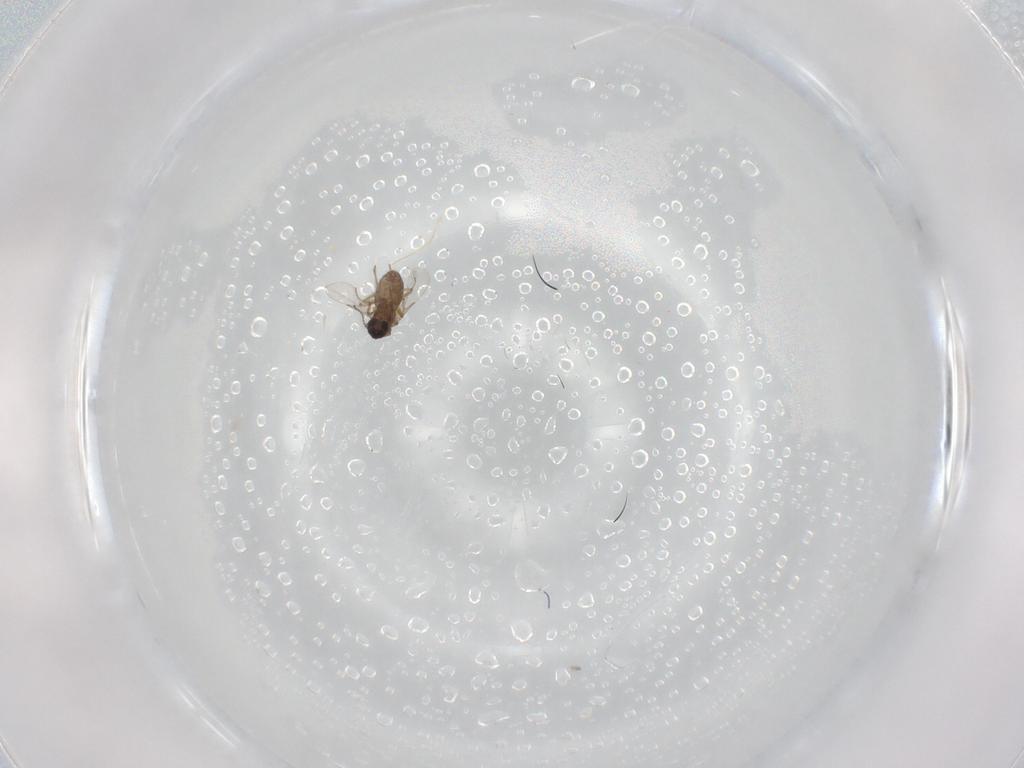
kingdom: Animalia
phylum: Arthropoda
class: Insecta
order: Diptera
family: Ceratopogonidae
